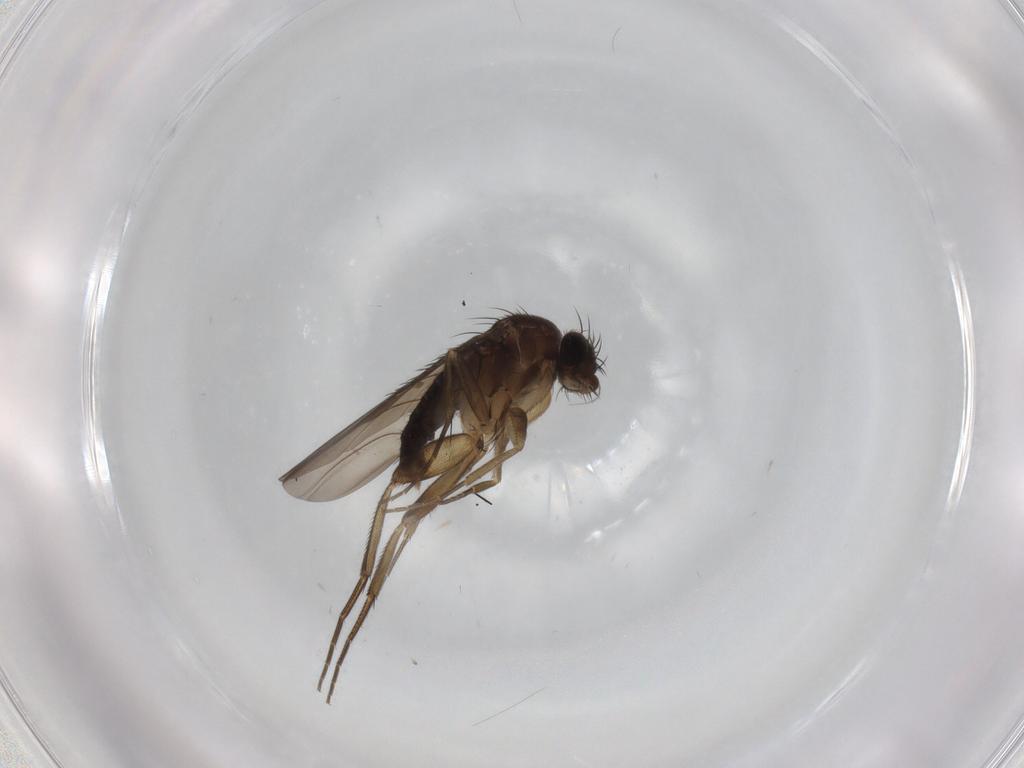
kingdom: Animalia
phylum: Arthropoda
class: Insecta
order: Diptera
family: Phoridae
